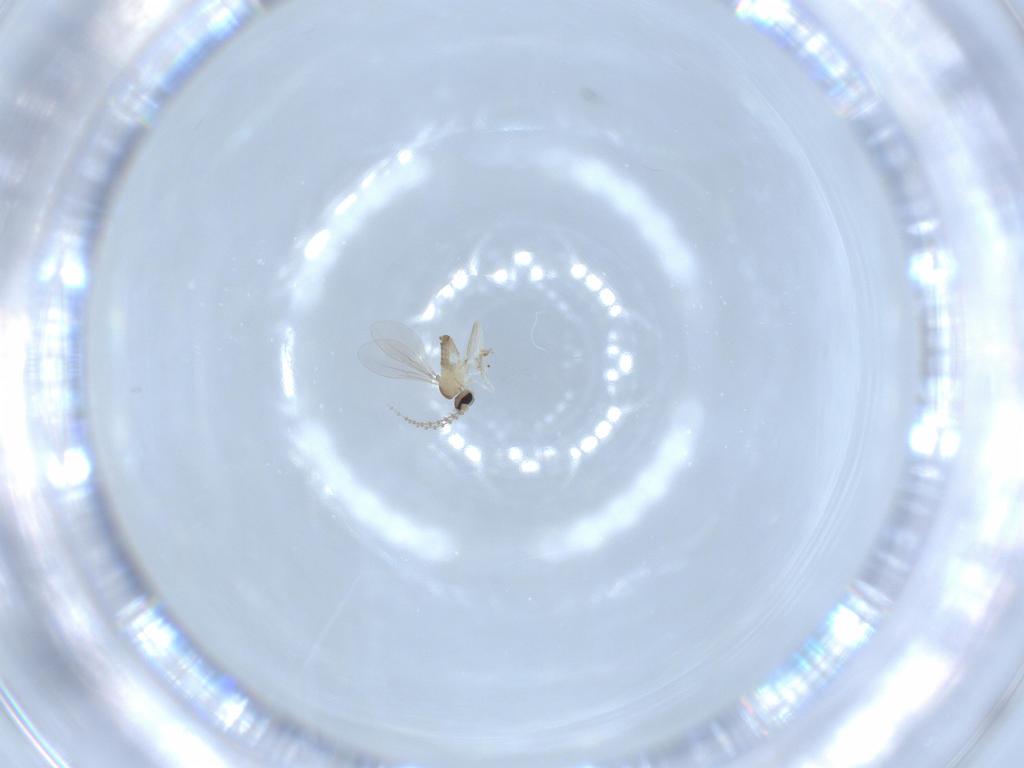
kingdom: Animalia
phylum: Arthropoda
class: Insecta
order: Diptera
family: Cecidomyiidae
